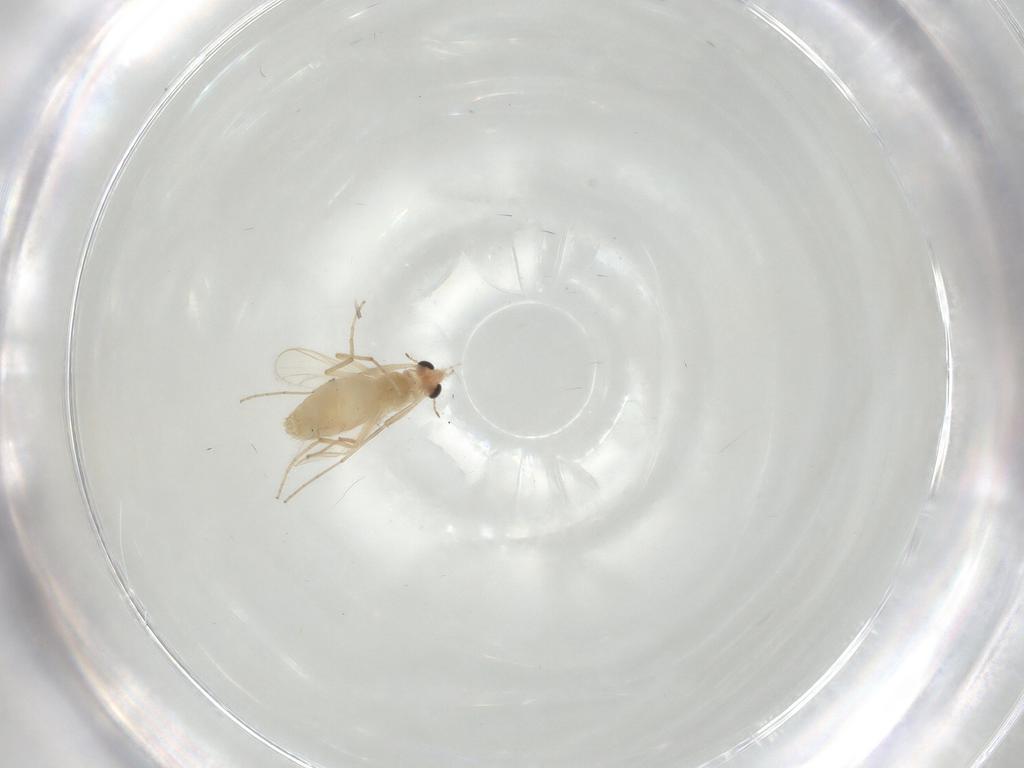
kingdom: Animalia
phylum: Arthropoda
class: Insecta
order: Diptera
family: Chironomidae
